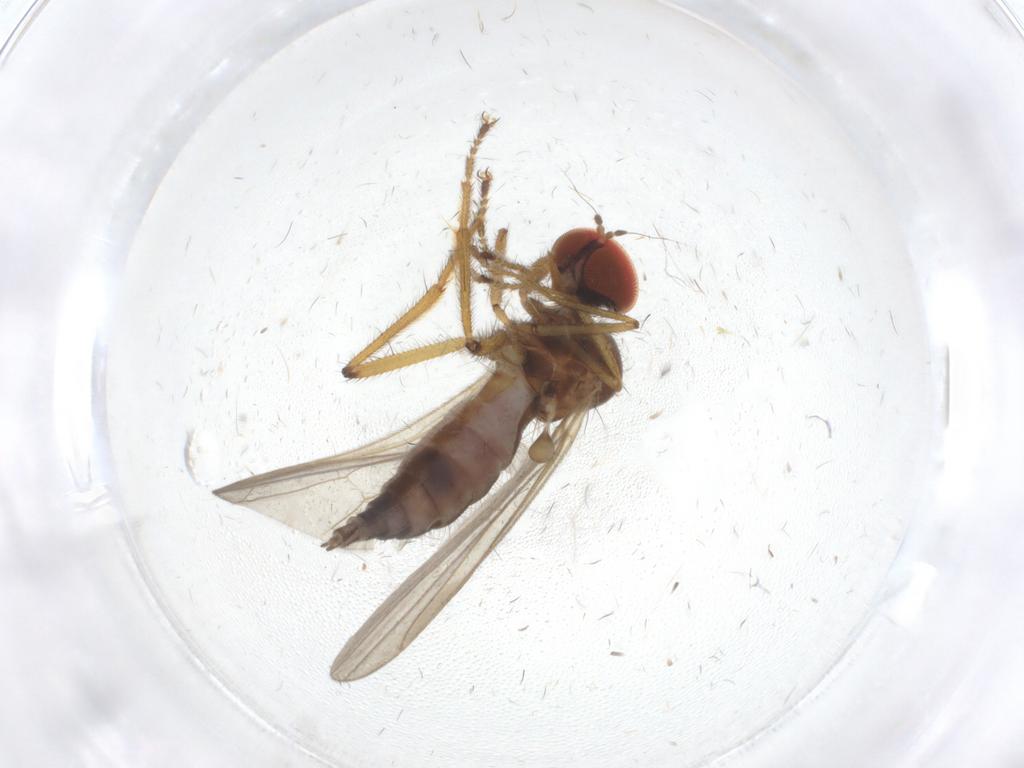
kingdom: Animalia
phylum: Arthropoda
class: Insecta
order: Diptera
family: Hybotidae
